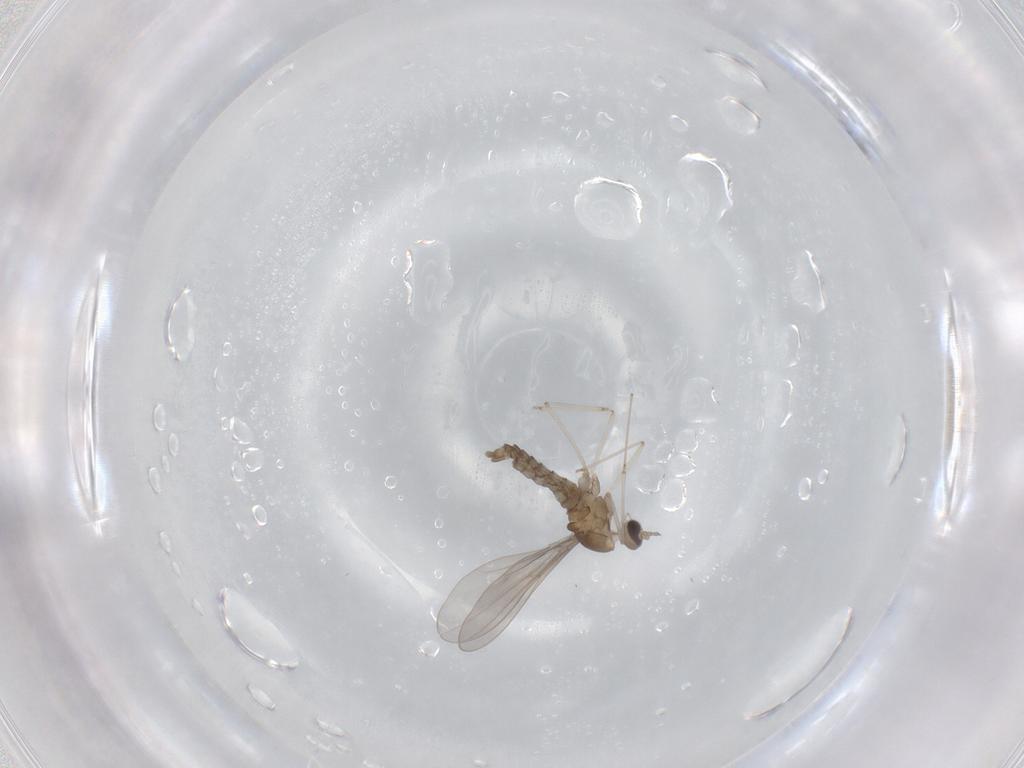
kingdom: Animalia
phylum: Arthropoda
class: Insecta
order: Diptera
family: Cecidomyiidae
